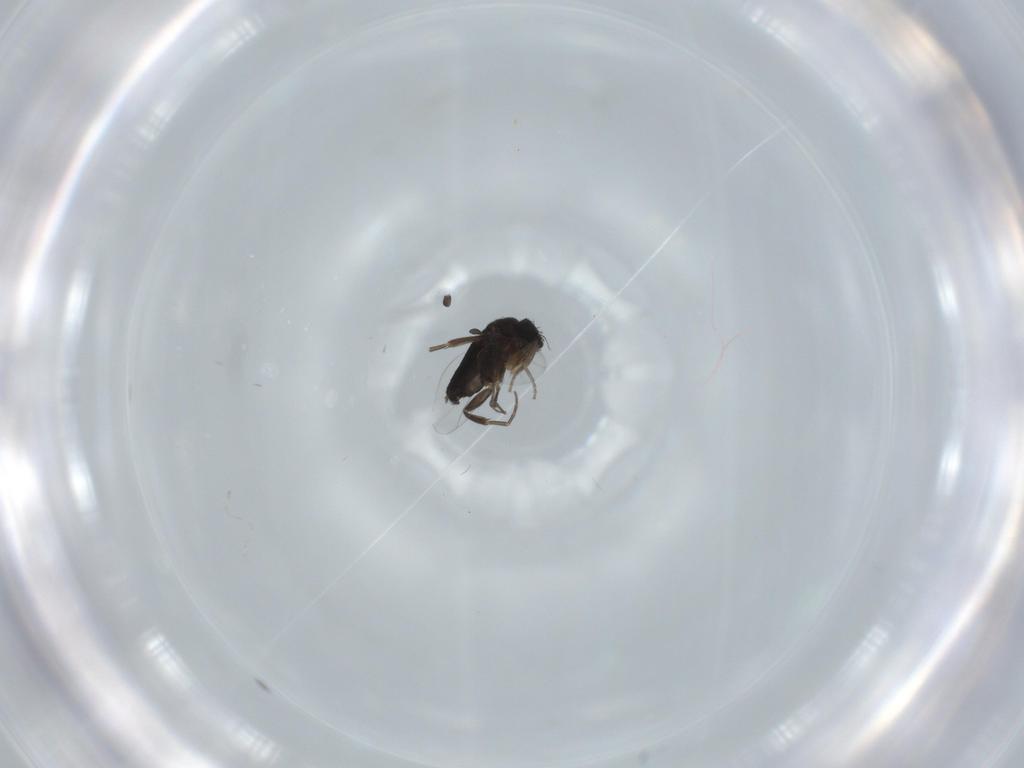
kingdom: Animalia
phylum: Arthropoda
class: Insecta
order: Diptera
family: Phoridae
